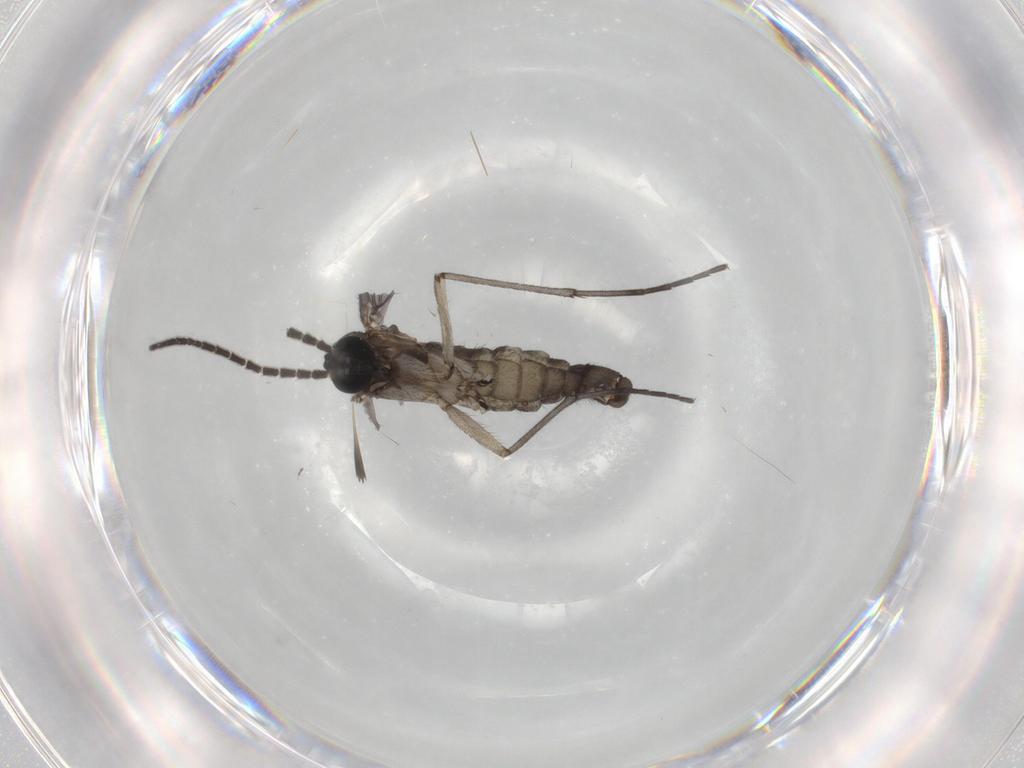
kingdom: Animalia
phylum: Arthropoda
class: Insecta
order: Diptera
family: Sciaridae
